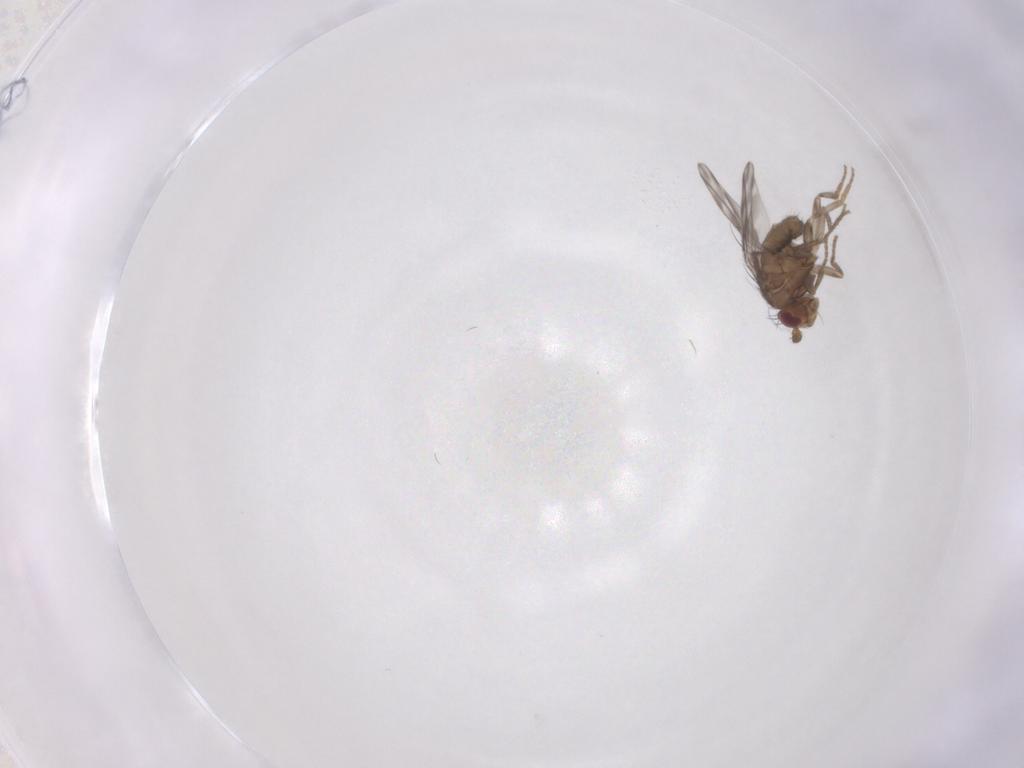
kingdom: Animalia
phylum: Arthropoda
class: Insecta
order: Diptera
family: Sphaeroceridae
